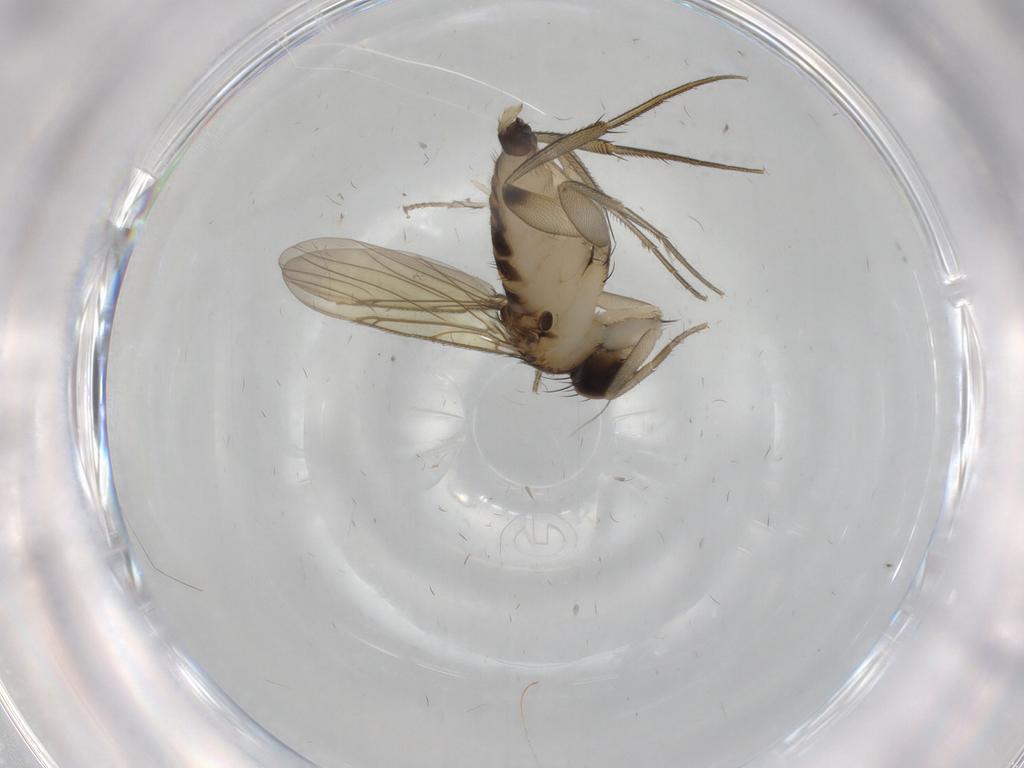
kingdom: Animalia
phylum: Arthropoda
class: Insecta
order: Diptera
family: Phoridae
